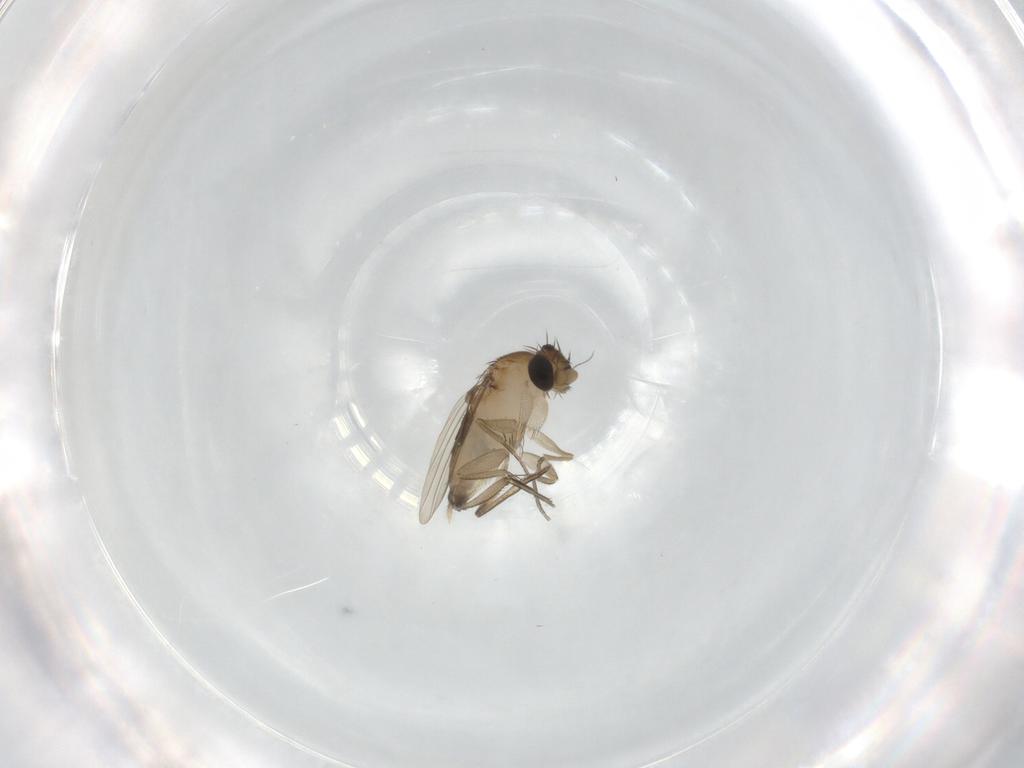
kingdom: Animalia
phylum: Arthropoda
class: Insecta
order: Diptera
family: Phoridae
